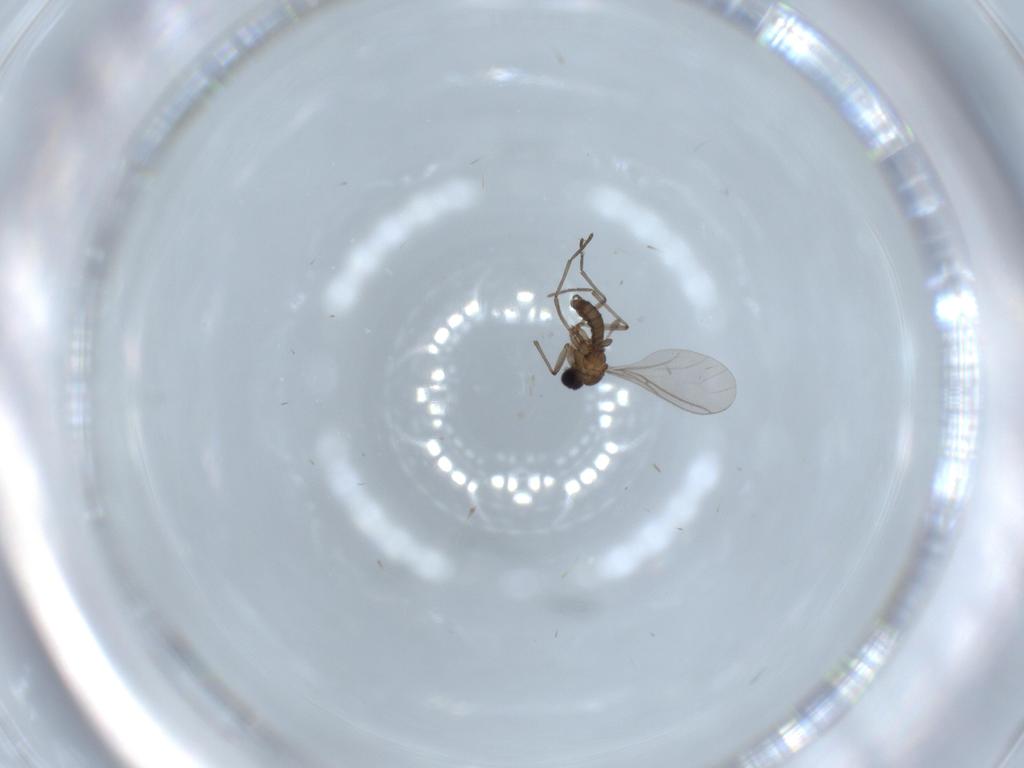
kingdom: Animalia
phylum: Arthropoda
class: Insecta
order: Diptera
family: Sciaridae
